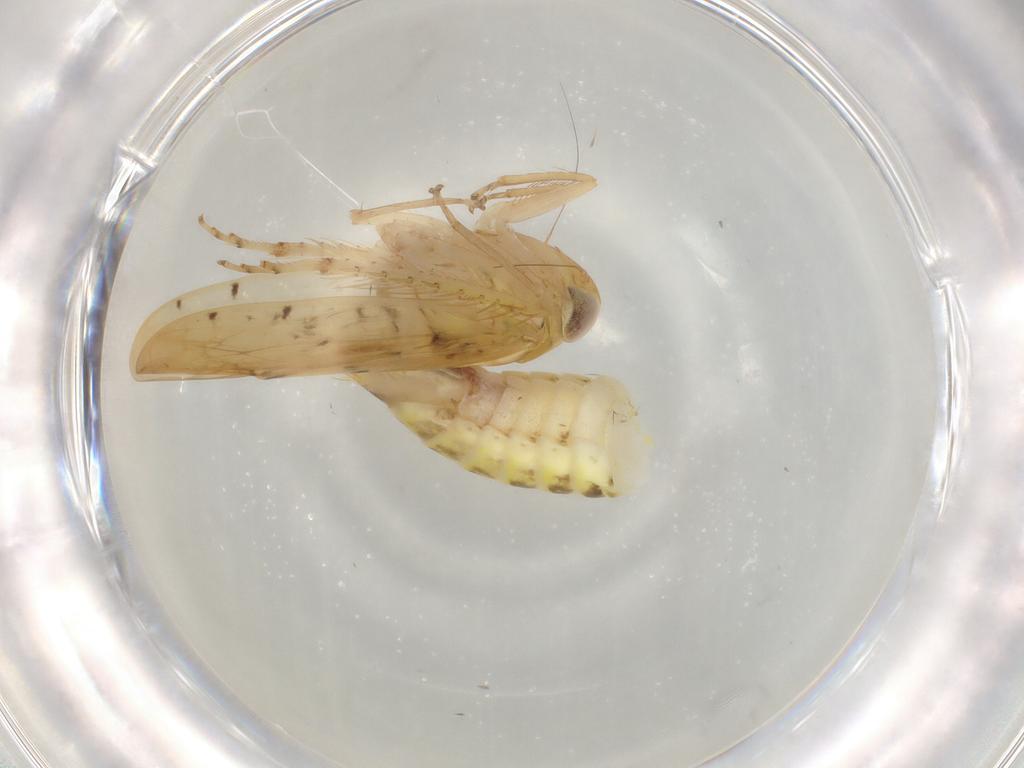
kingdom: Animalia
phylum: Arthropoda
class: Insecta
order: Hemiptera
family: Cicadellidae
